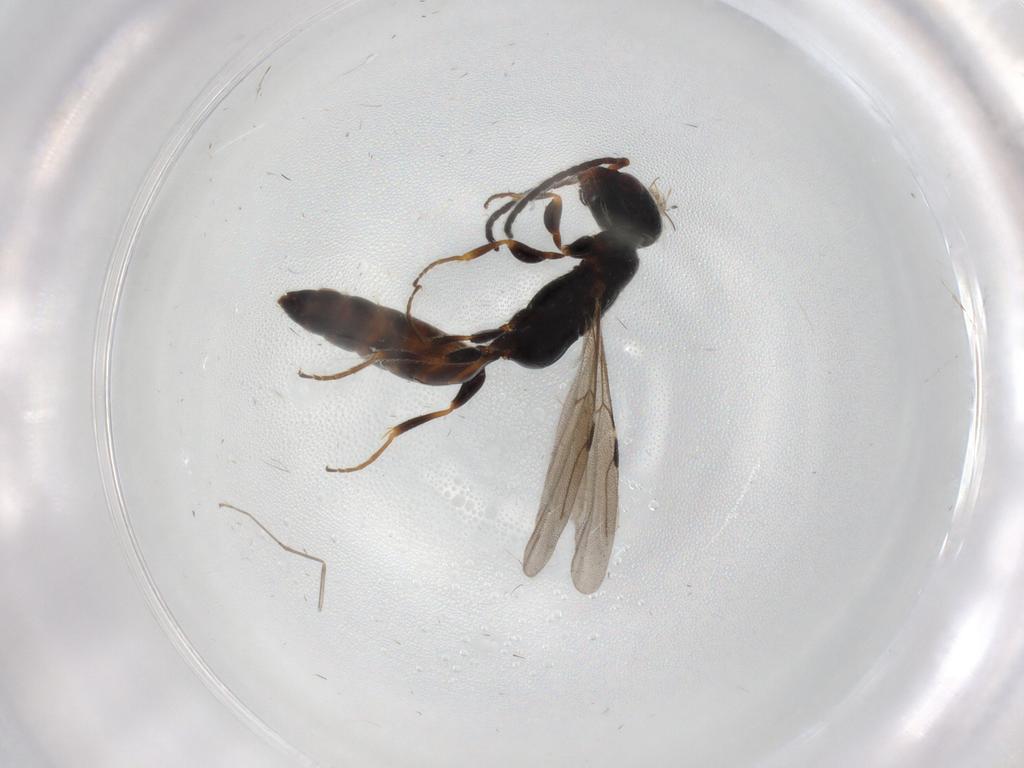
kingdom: Animalia
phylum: Arthropoda
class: Insecta
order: Hymenoptera
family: Bethylidae
